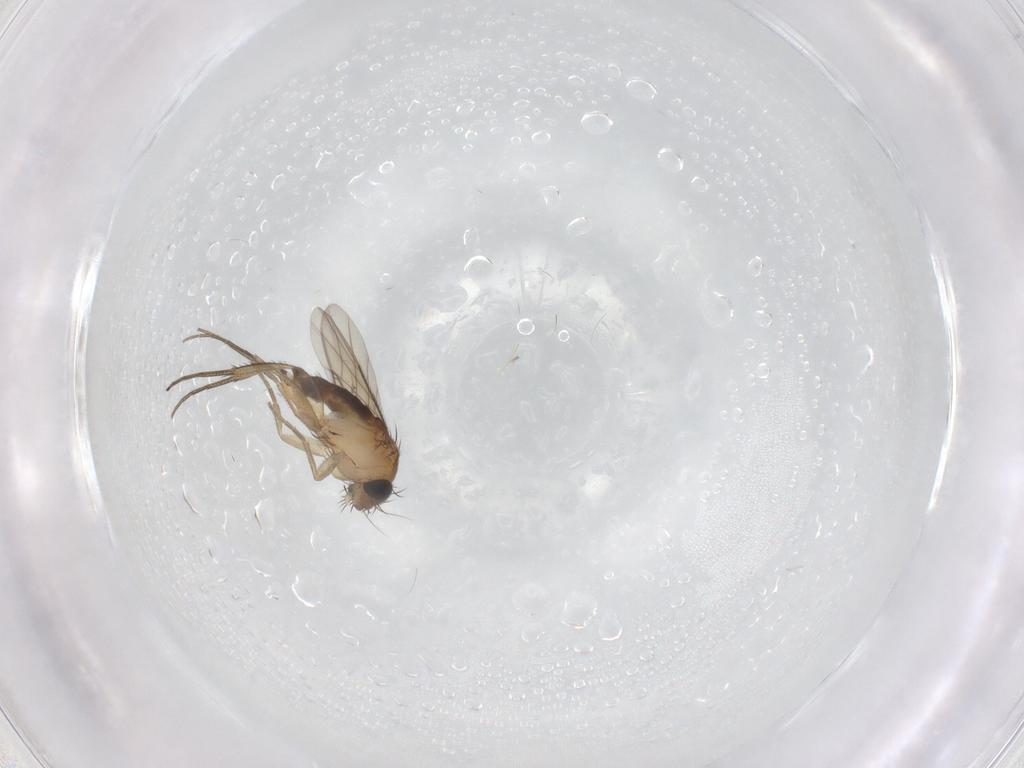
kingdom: Animalia
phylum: Arthropoda
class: Insecta
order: Diptera
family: Phoridae
